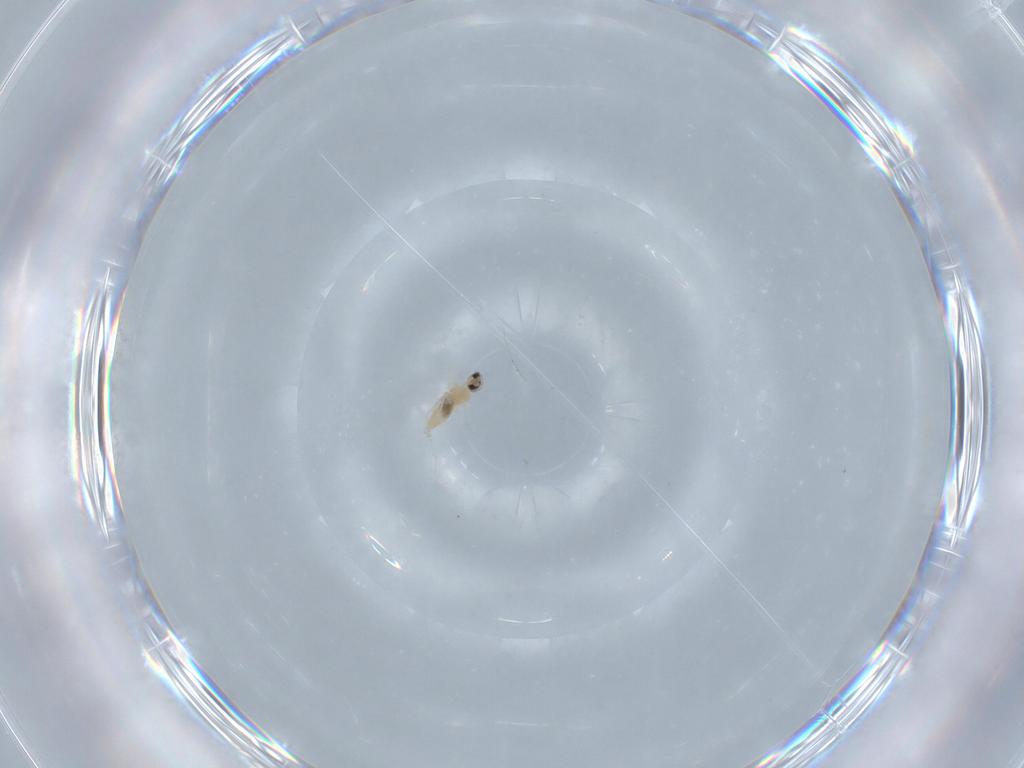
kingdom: Animalia
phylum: Arthropoda
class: Insecta
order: Diptera
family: Cecidomyiidae
